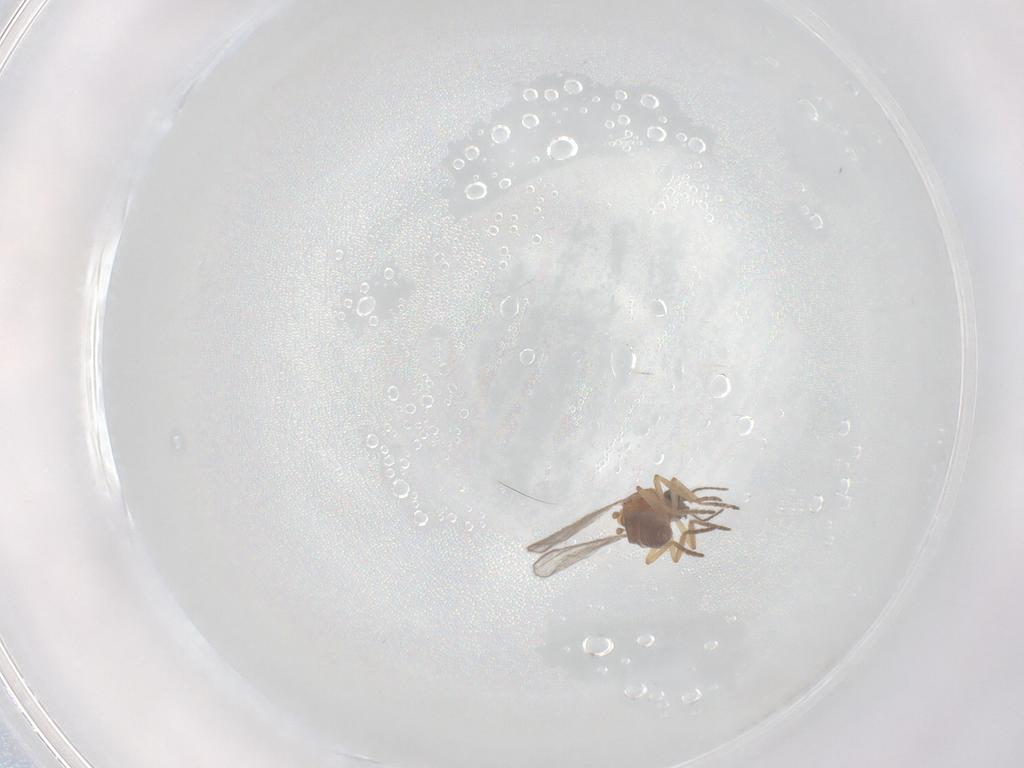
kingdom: Animalia
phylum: Arthropoda
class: Insecta
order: Diptera
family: Chironomidae
